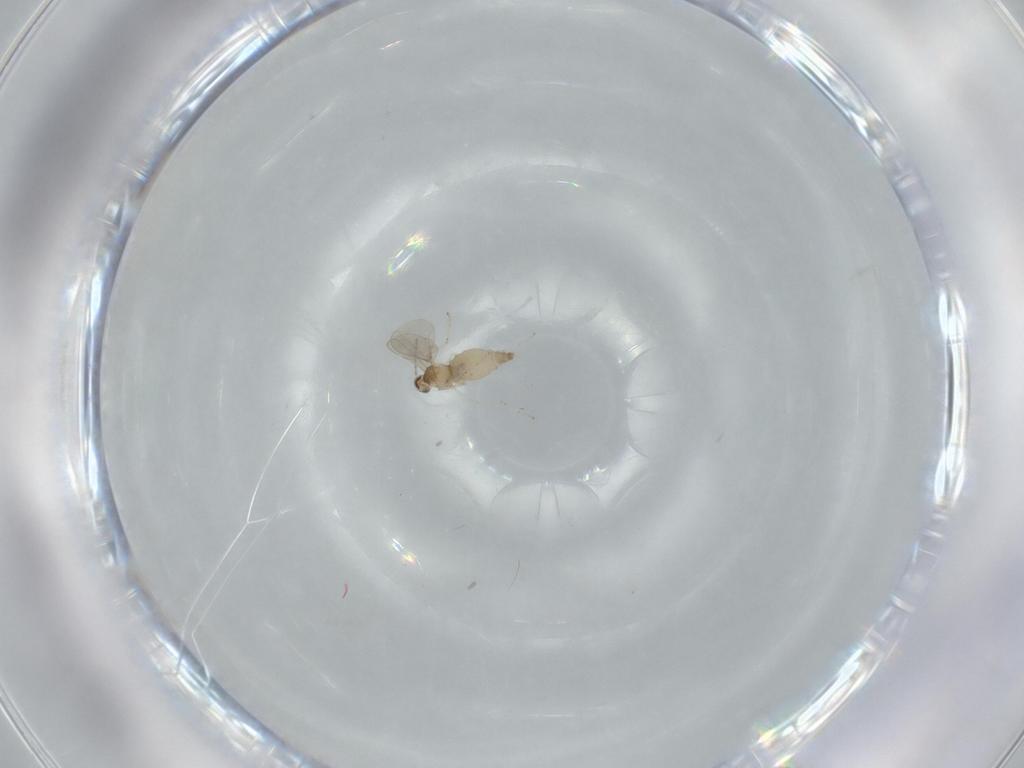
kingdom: Animalia
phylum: Arthropoda
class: Insecta
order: Diptera
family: Cecidomyiidae
